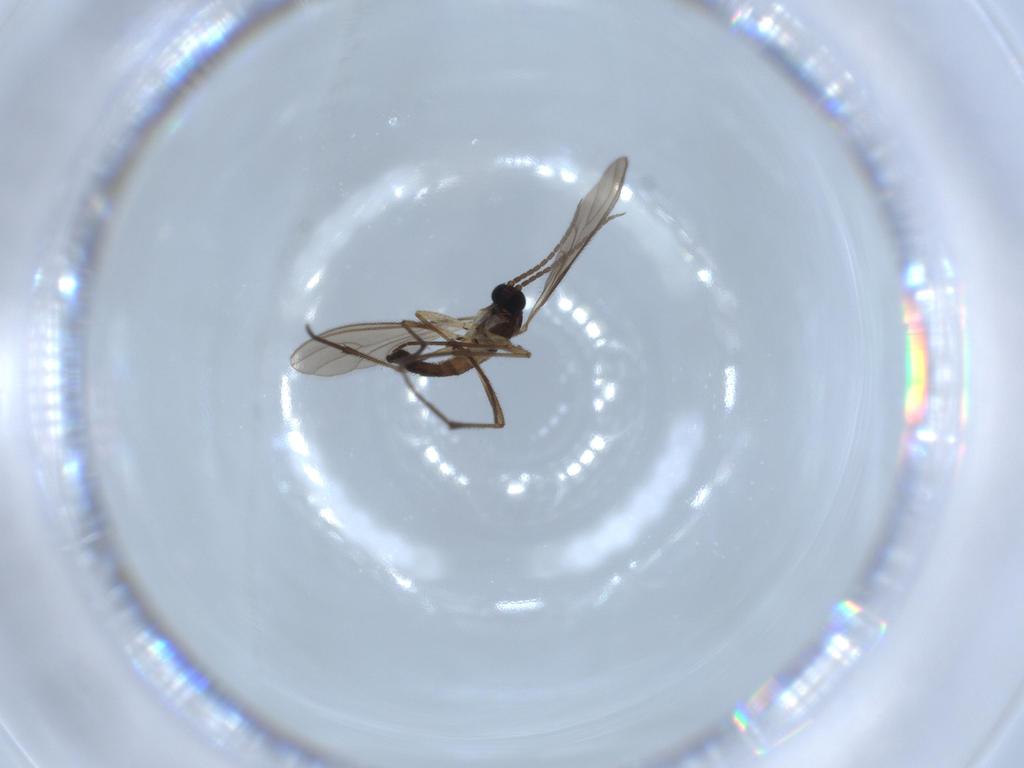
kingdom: Animalia
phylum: Arthropoda
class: Insecta
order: Diptera
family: Sciaridae
